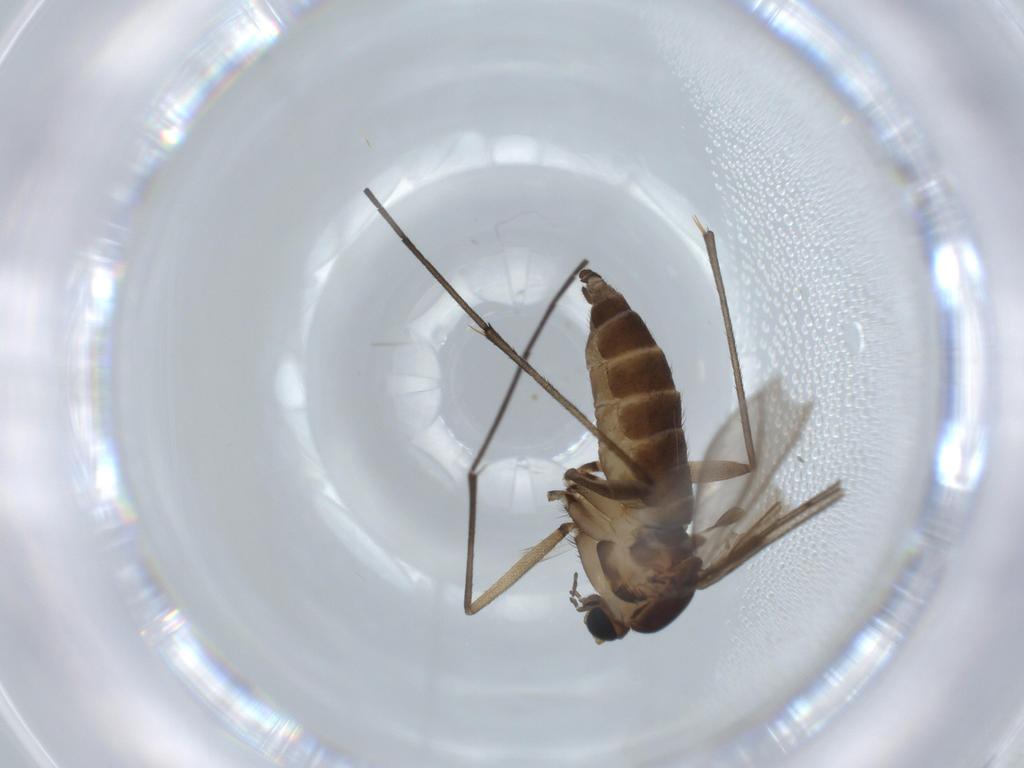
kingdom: Animalia
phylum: Arthropoda
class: Insecta
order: Diptera
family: Sciaridae
